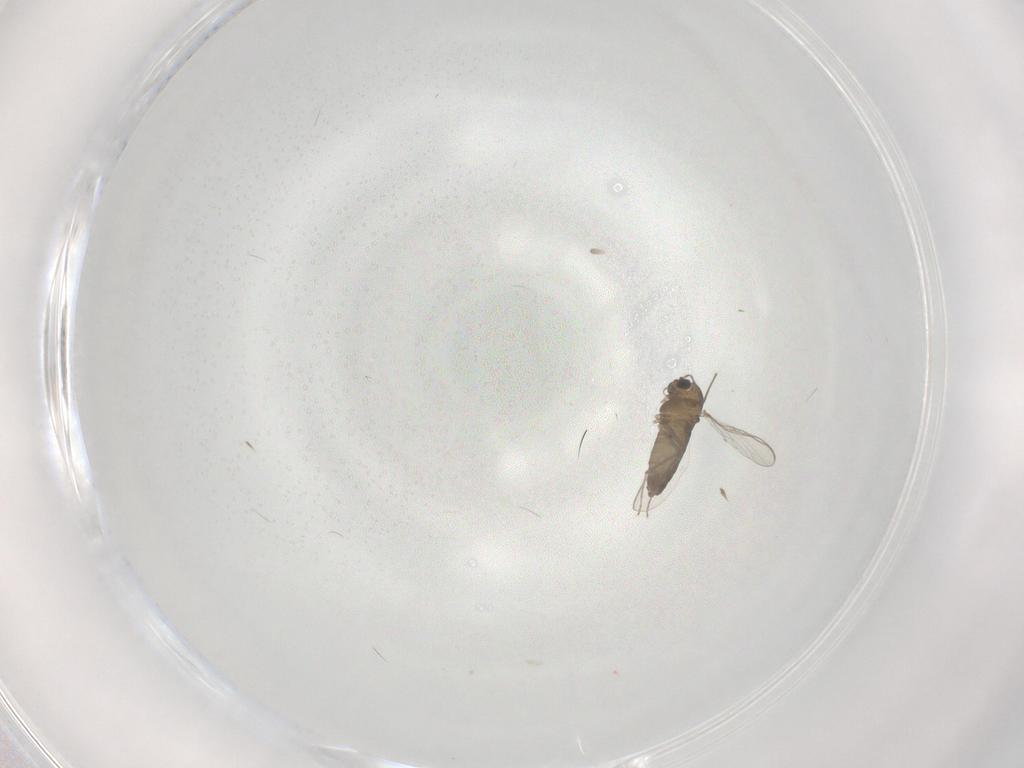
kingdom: Animalia
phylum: Arthropoda
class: Insecta
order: Diptera
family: Chironomidae
